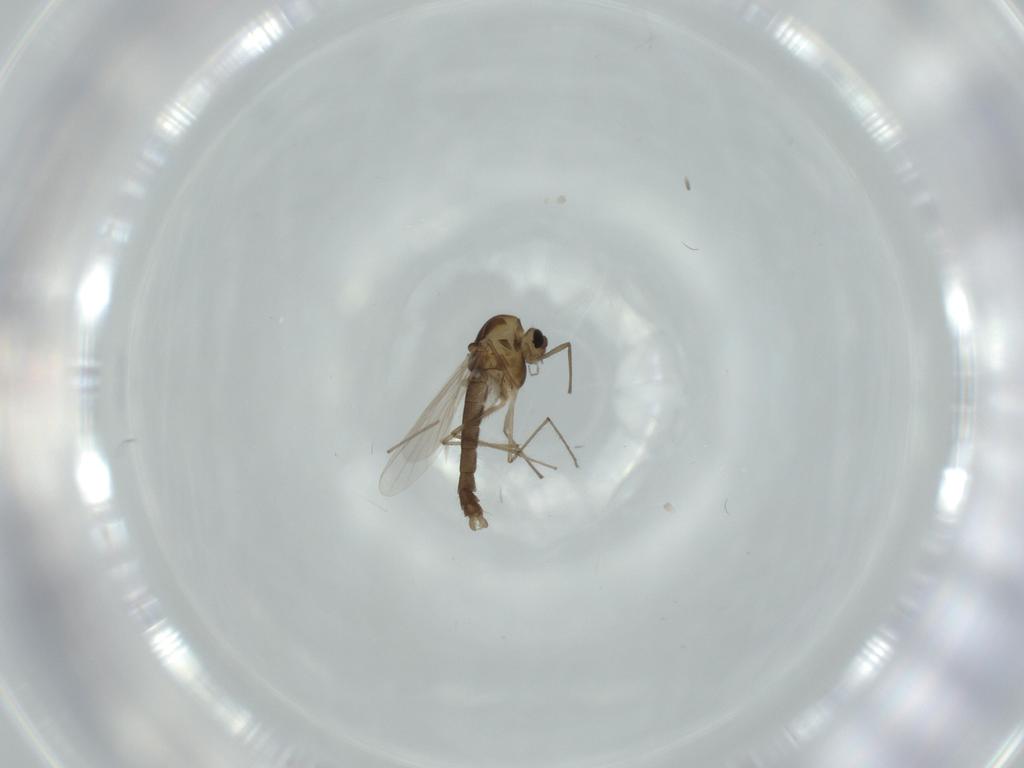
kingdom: Animalia
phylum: Arthropoda
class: Insecta
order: Diptera
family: Chironomidae
